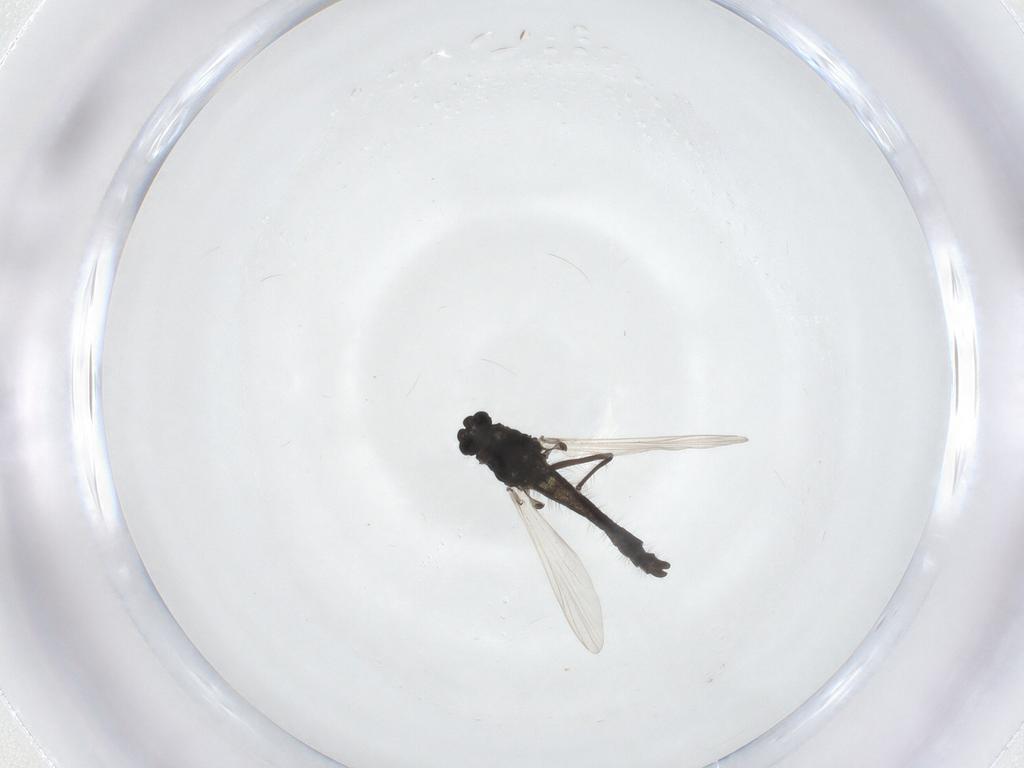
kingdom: Animalia
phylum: Arthropoda
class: Insecta
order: Diptera
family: Chironomidae
